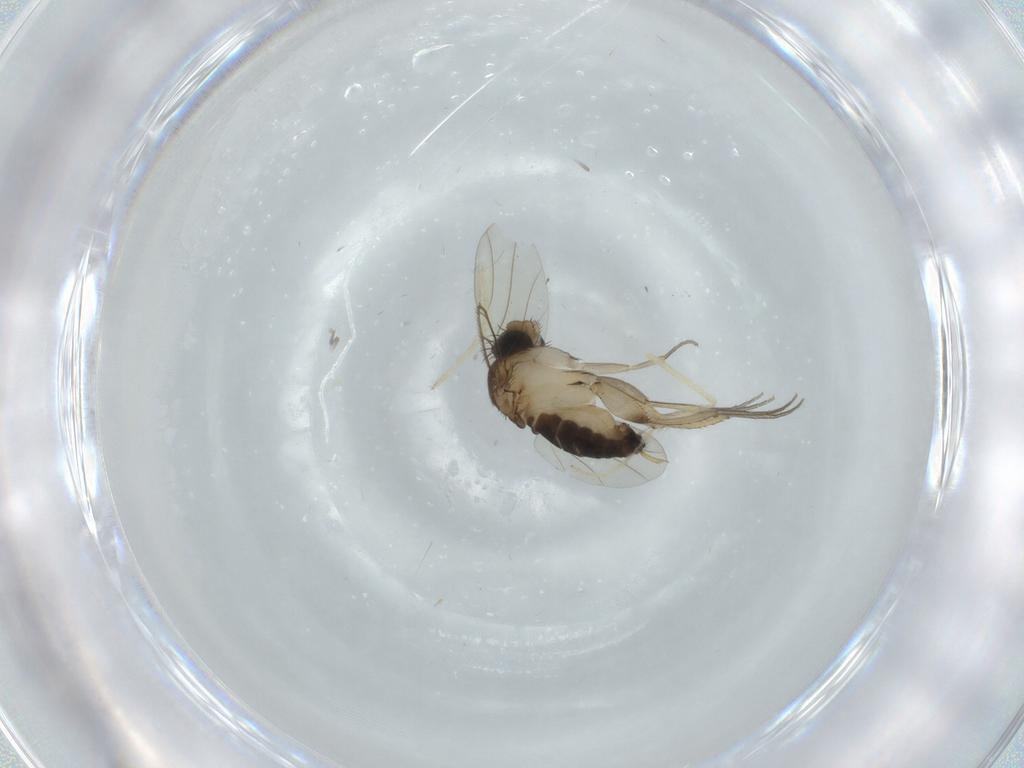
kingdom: Animalia
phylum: Arthropoda
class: Insecta
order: Diptera
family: Phoridae
